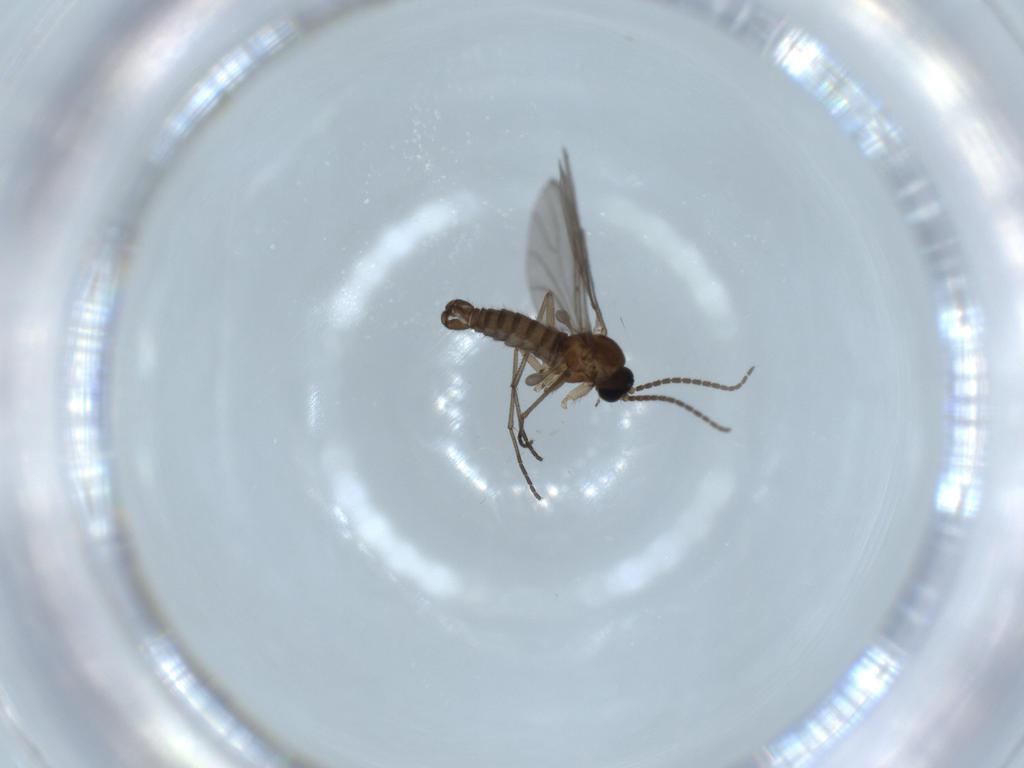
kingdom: Animalia
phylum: Arthropoda
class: Insecta
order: Diptera
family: Sciaridae
